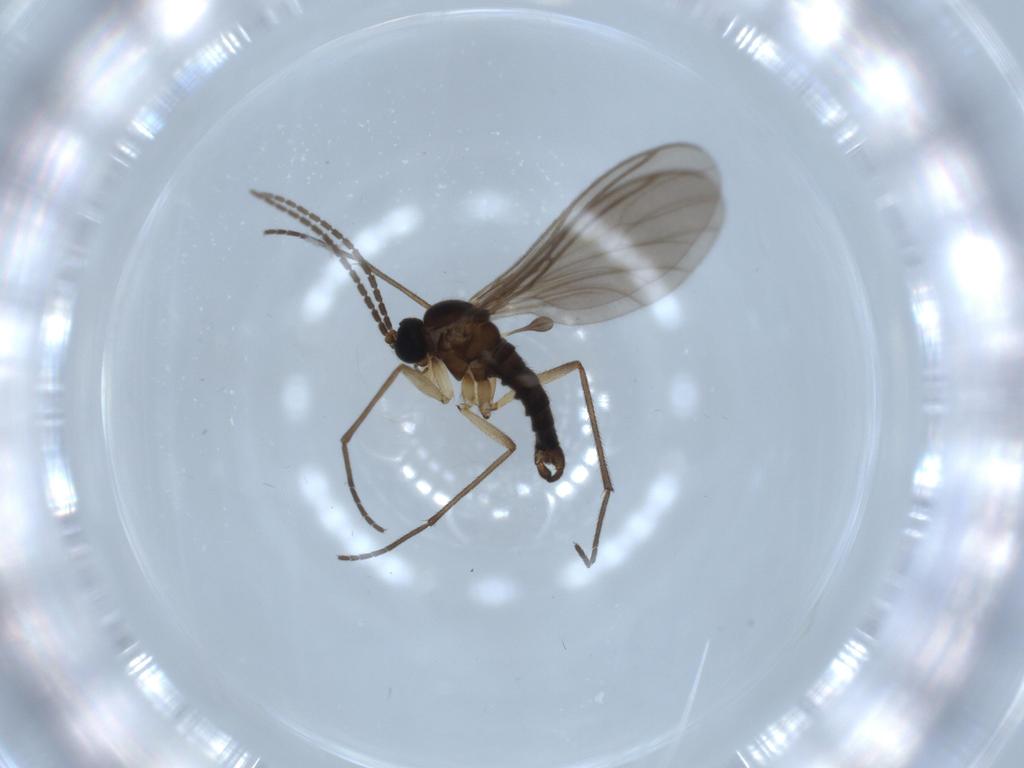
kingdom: Animalia
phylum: Arthropoda
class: Insecta
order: Diptera
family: Sciaridae
